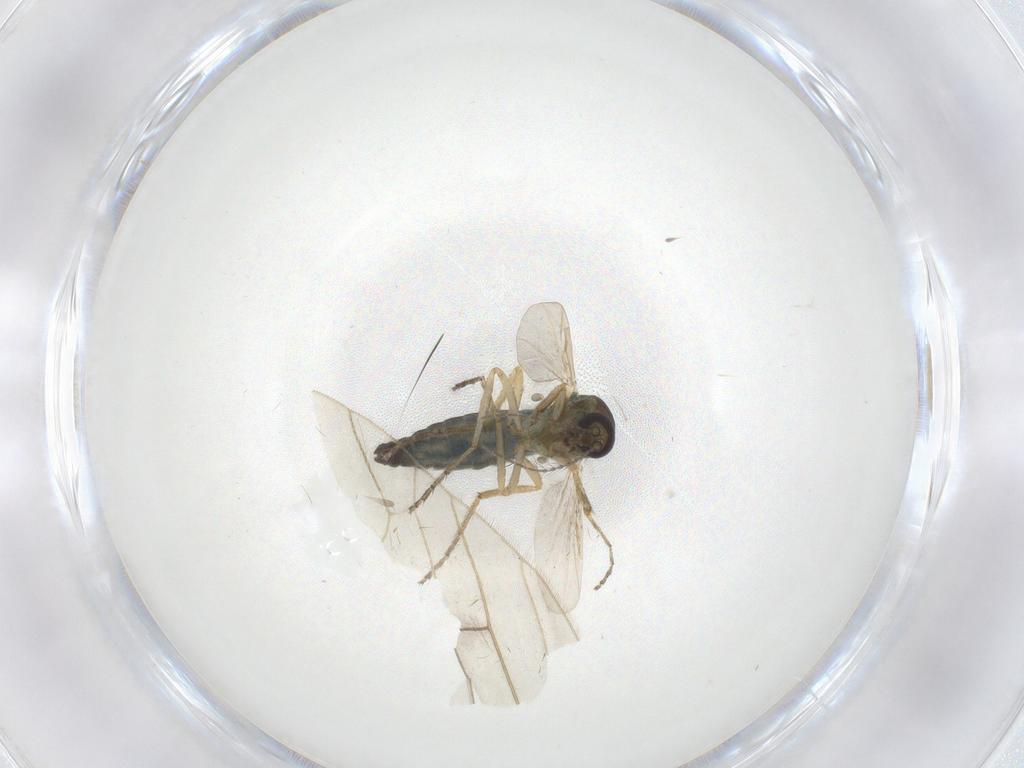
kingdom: Animalia
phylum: Arthropoda
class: Insecta
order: Diptera
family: Ceratopogonidae
